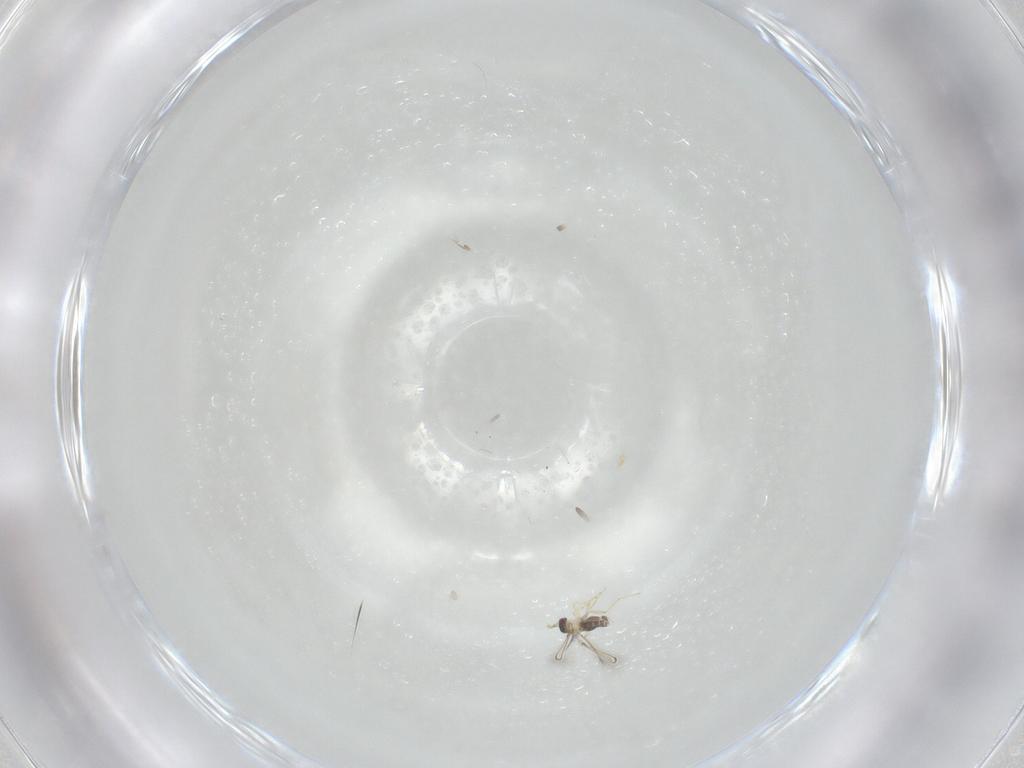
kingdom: Animalia
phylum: Arthropoda
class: Insecta
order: Hymenoptera
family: Mymaridae
